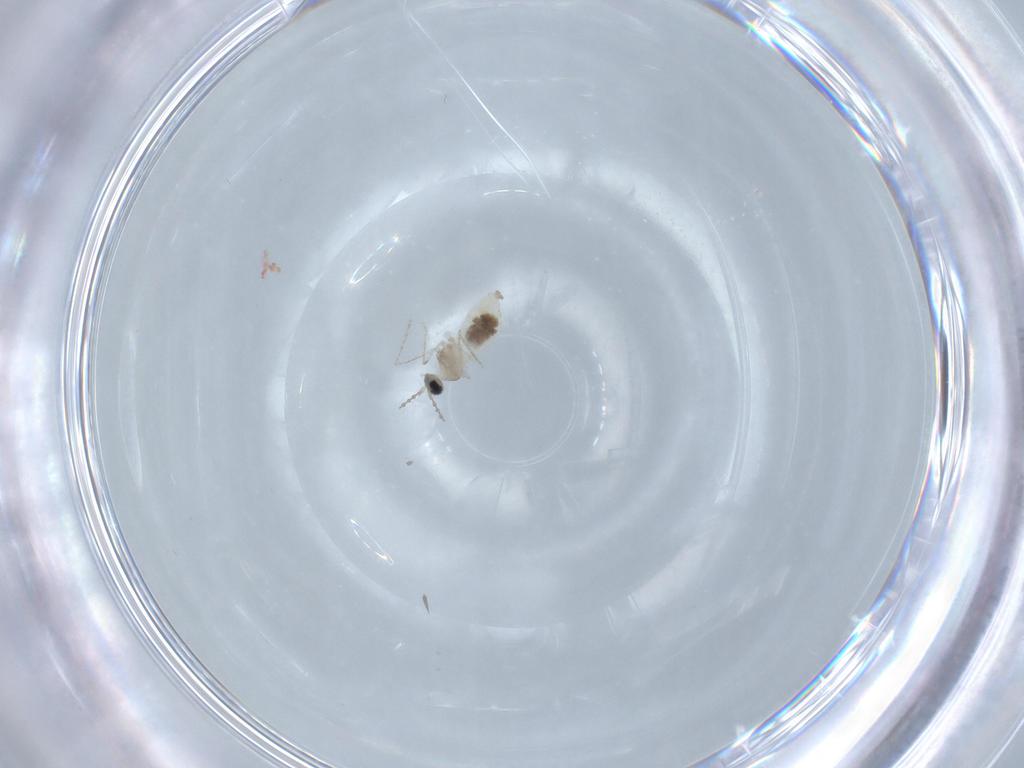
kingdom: Animalia
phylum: Arthropoda
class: Insecta
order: Diptera
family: Cecidomyiidae
